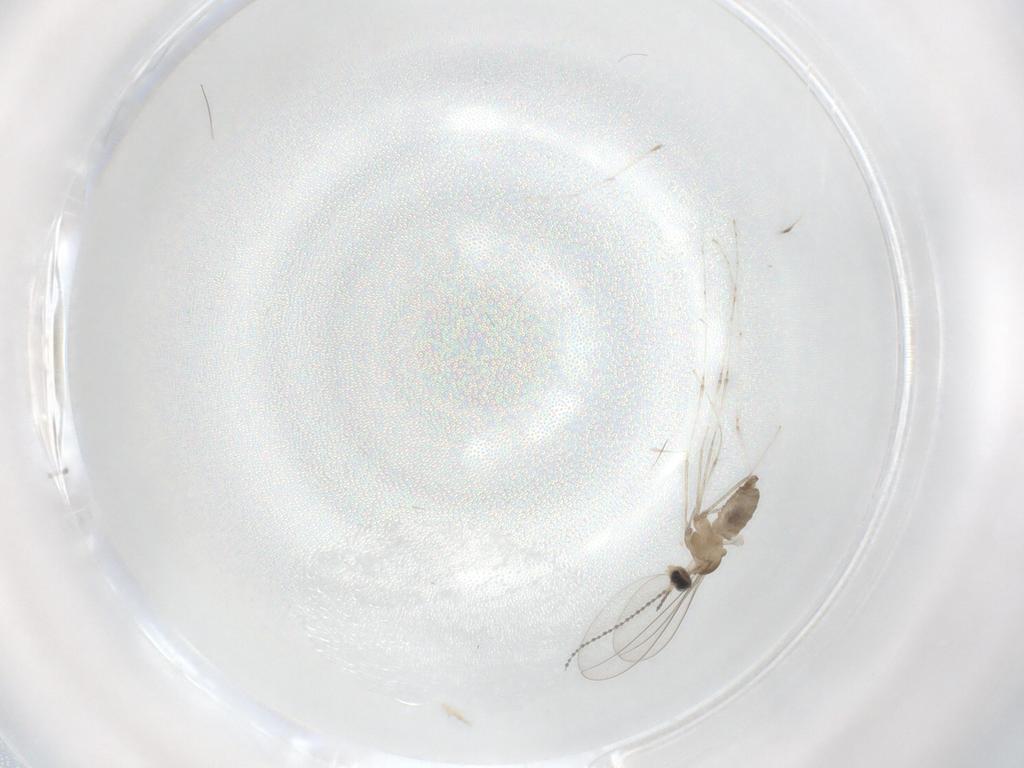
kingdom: Animalia
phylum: Arthropoda
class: Insecta
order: Diptera
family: Cecidomyiidae
